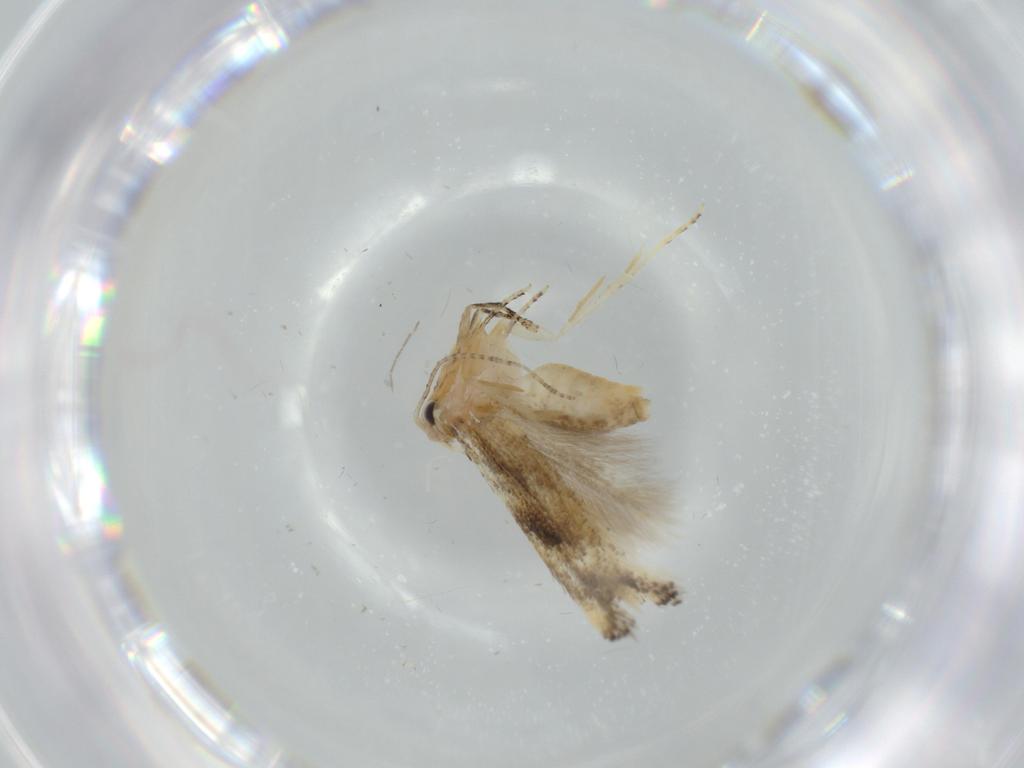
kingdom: Animalia
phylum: Arthropoda
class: Insecta
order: Lepidoptera
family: Bucculatricidae
